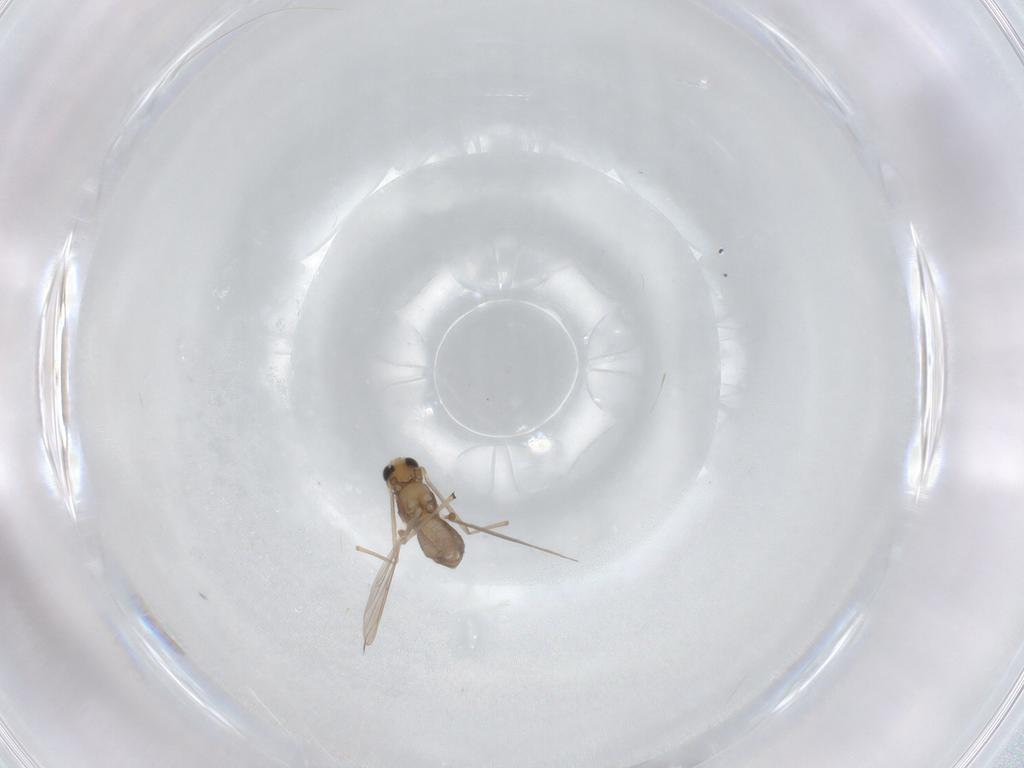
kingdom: Animalia
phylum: Arthropoda
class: Insecta
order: Diptera
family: Chironomidae
